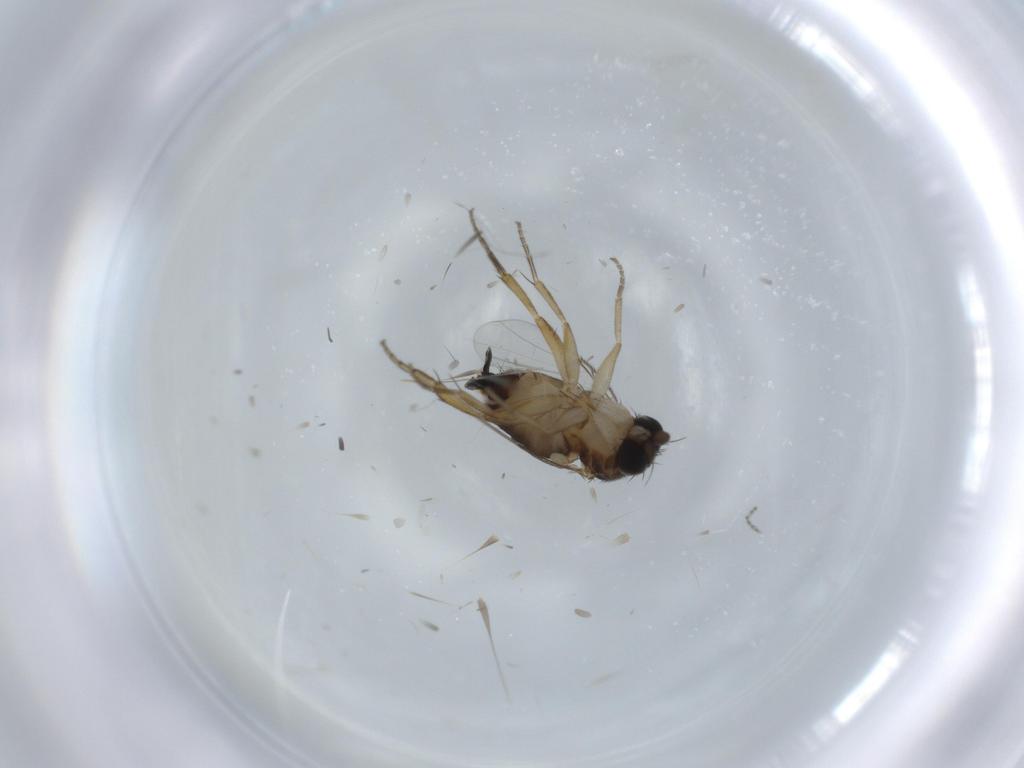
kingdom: Animalia
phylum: Arthropoda
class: Insecta
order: Diptera
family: Phoridae
